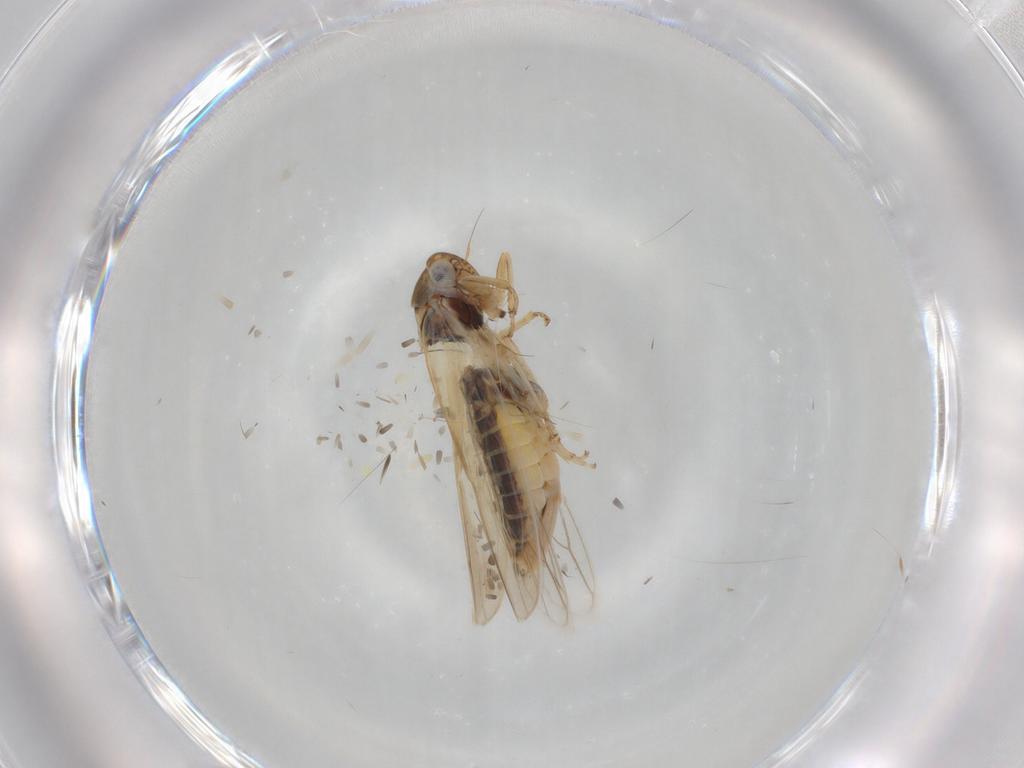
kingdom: Animalia
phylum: Arthropoda
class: Insecta
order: Hemiptera
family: Cicadellidae
